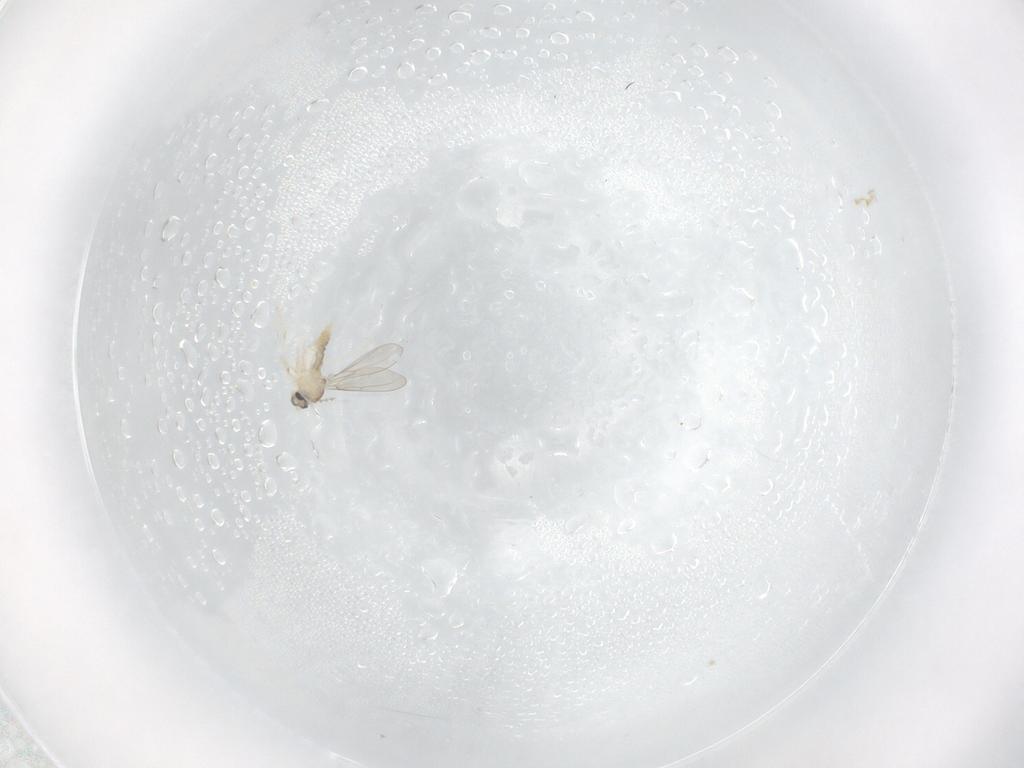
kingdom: Animalia
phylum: Arthropoda
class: Insecta
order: Diptera
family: Cecidomyiidae
